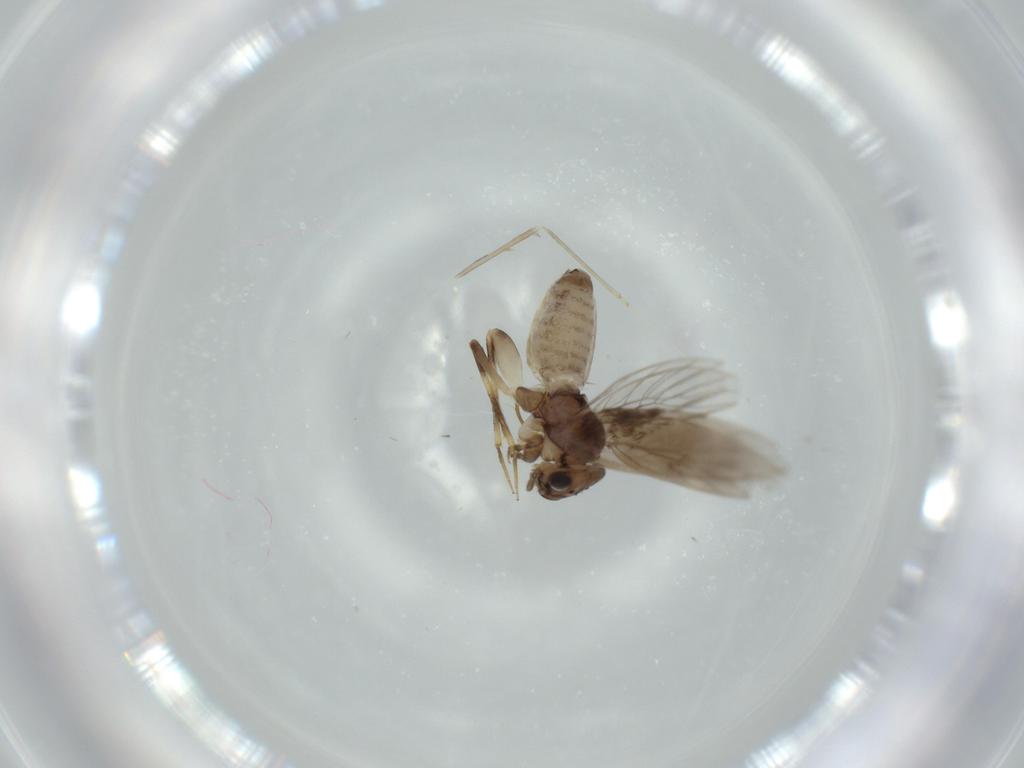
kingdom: Animalia
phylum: Arthropoda
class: Insecta
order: Psocodea
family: Lepidopsocidae
